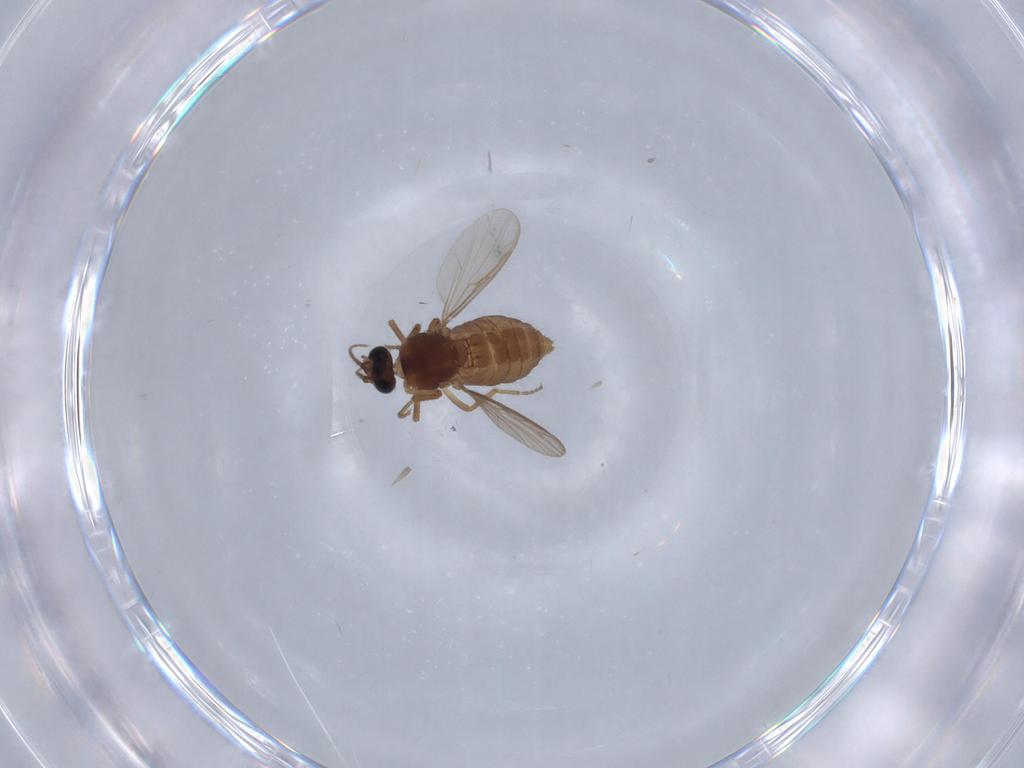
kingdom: Animalia
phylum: Arthropoda
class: Insecta
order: Diptera
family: Ceratopogonidae
